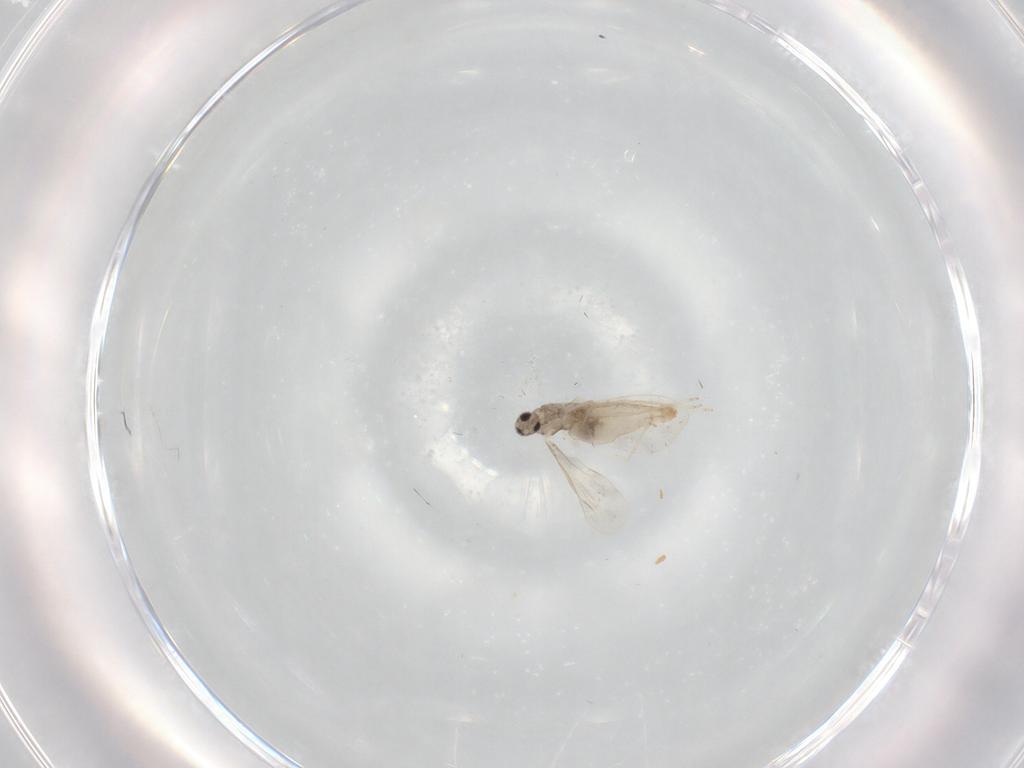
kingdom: Animalia
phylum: Arthropoda
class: Insecta
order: Diptera
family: Cecidomyiidae
